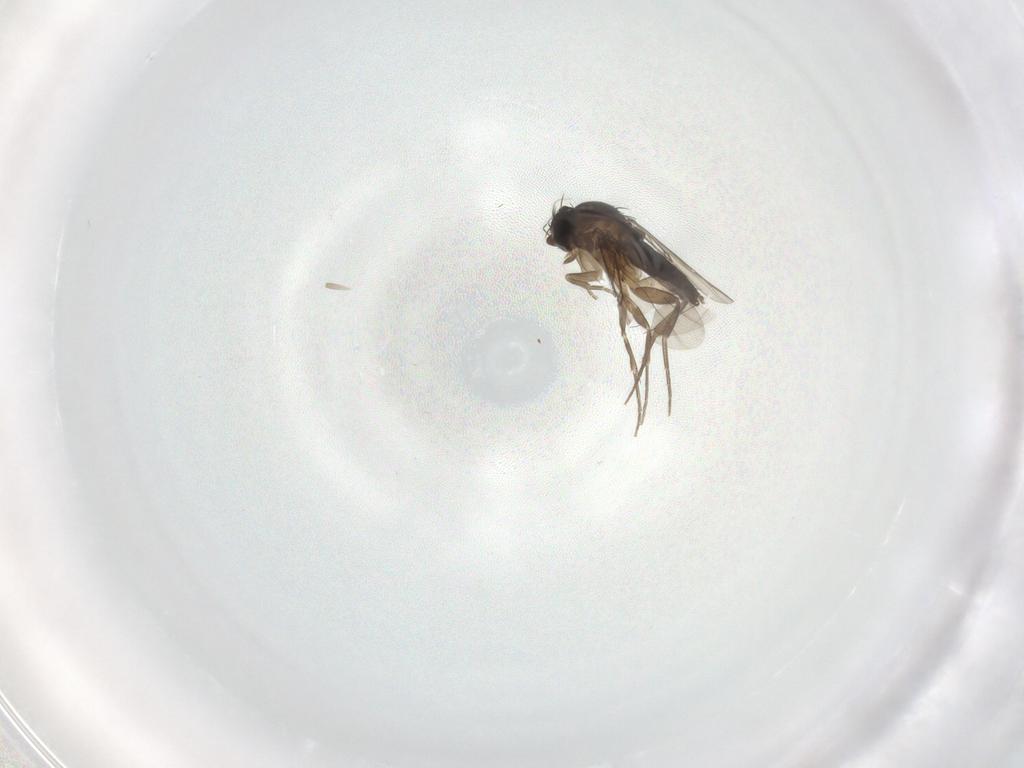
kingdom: Animalia
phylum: Arthropoda
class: Insecta
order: Diptera
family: Phoridae
